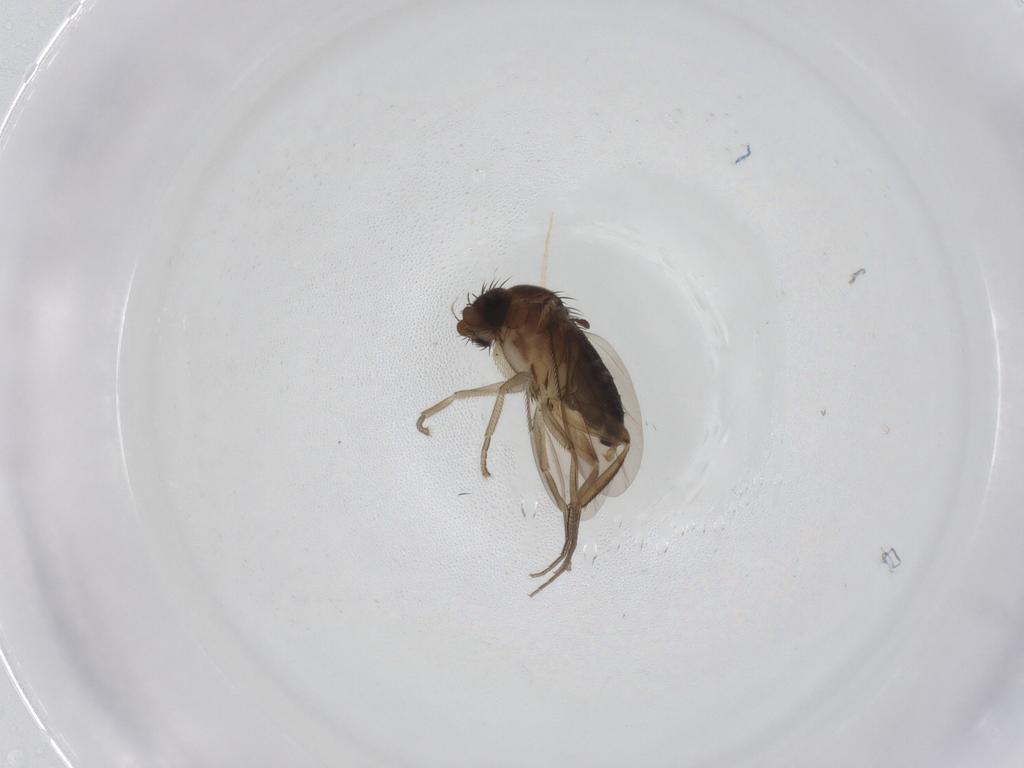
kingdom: Animalia
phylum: Arthropoda
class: Insecta
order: Diptera
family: Phoridae
